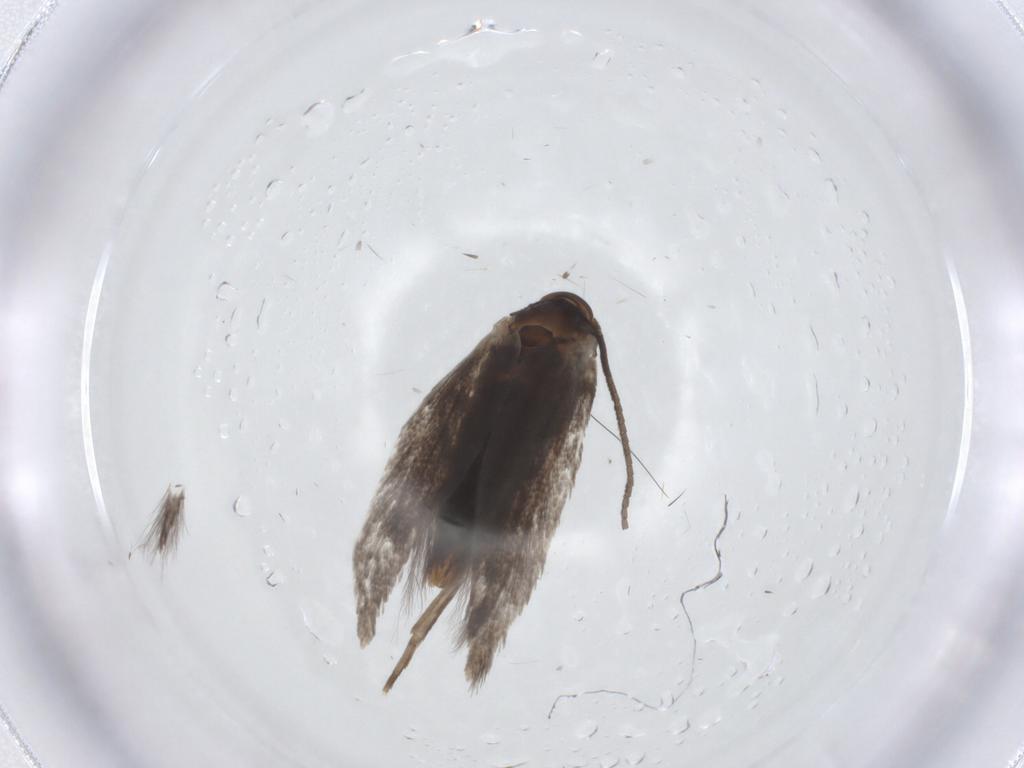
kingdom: Animalia
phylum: Arthropoda
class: Insecta
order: Lepidoptera
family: Elachistidae
